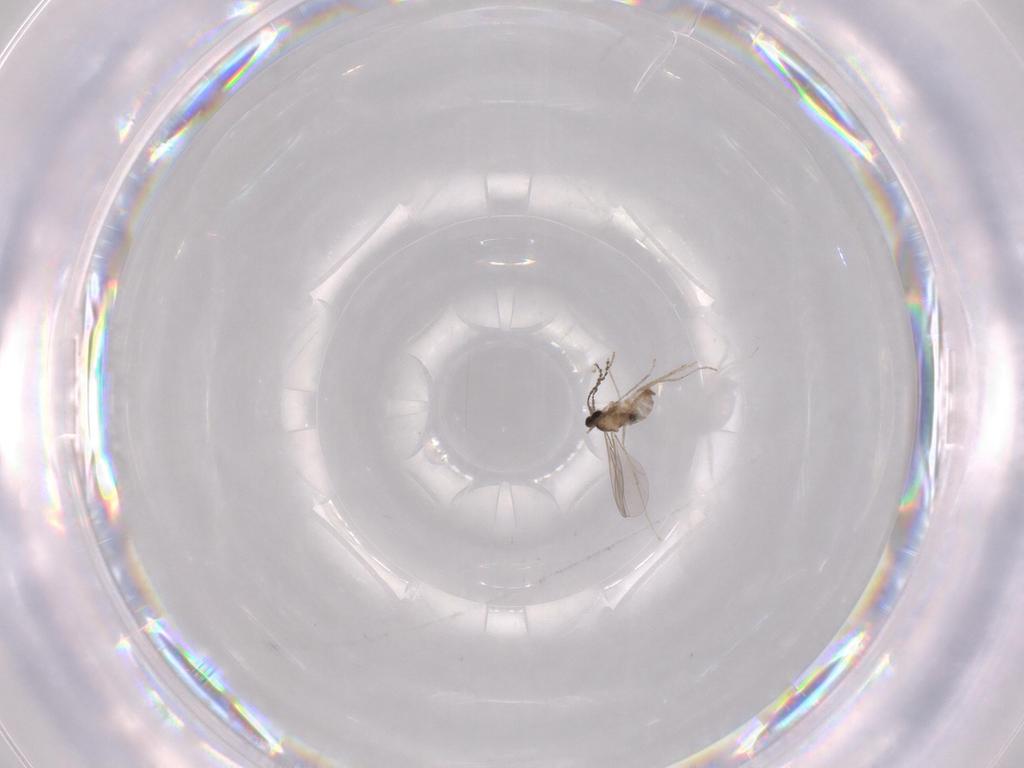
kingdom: Animalia
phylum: Arthropoda
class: Insecta
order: Diptera
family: Cecidomyiidae
